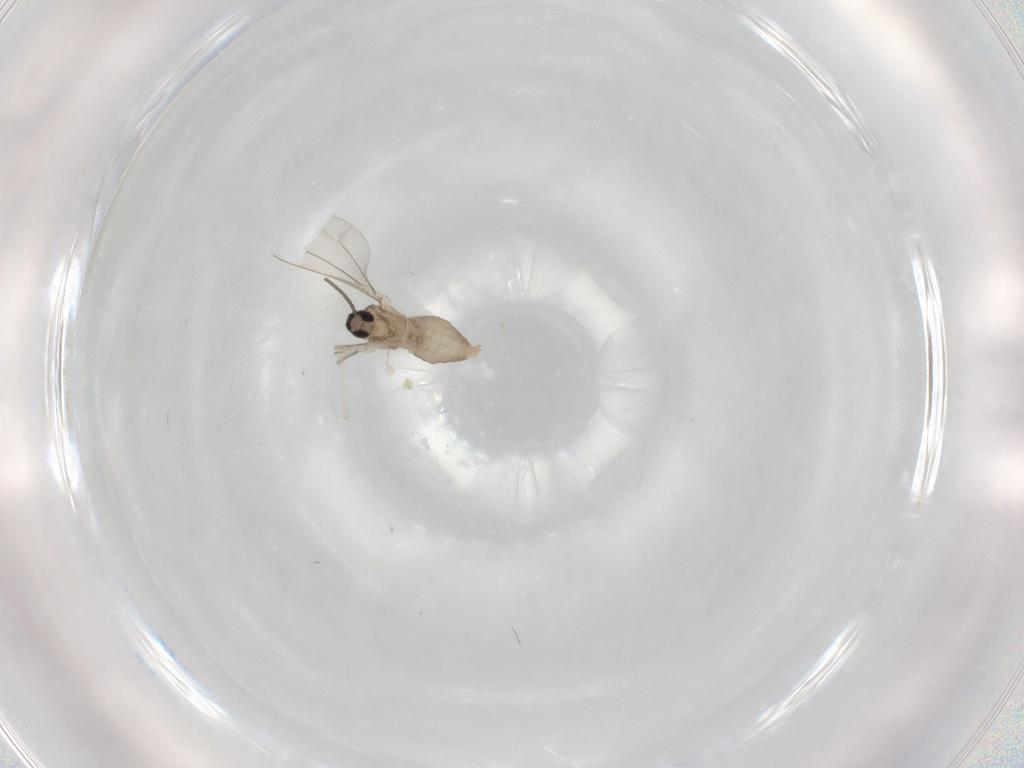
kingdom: Animalia
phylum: Arthropoda
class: Insecta
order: Diptera
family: Cecidomyiidae
